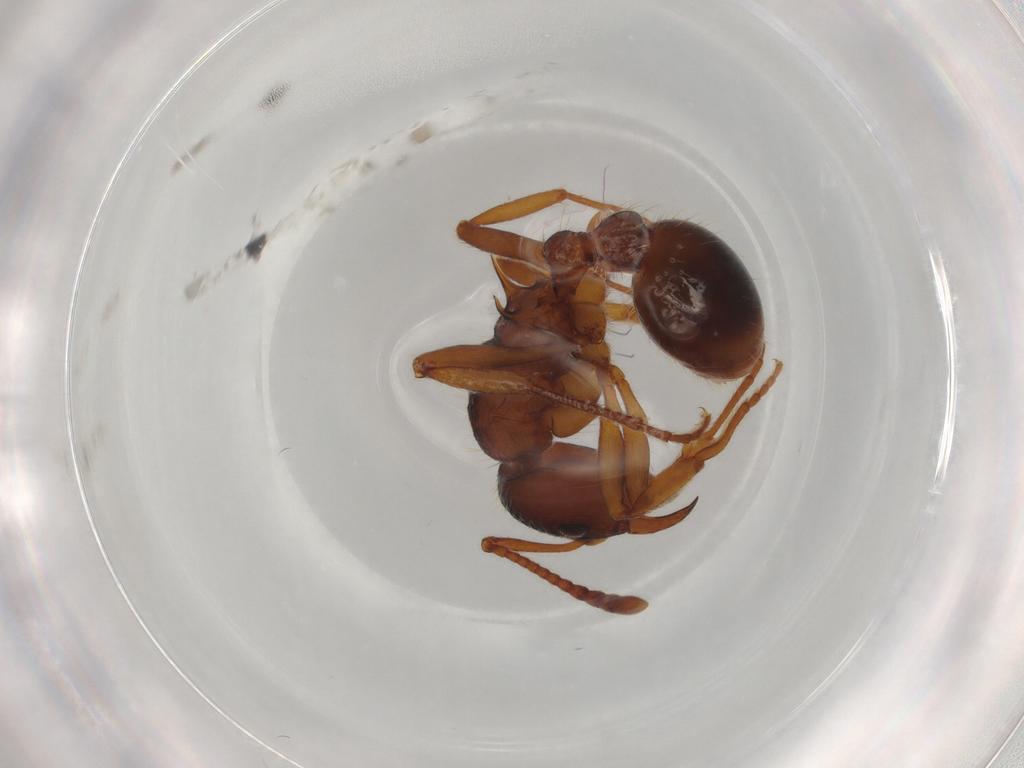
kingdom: Animalia
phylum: Arthropoda
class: Insecta
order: Hymenoptera
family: Formicidae
